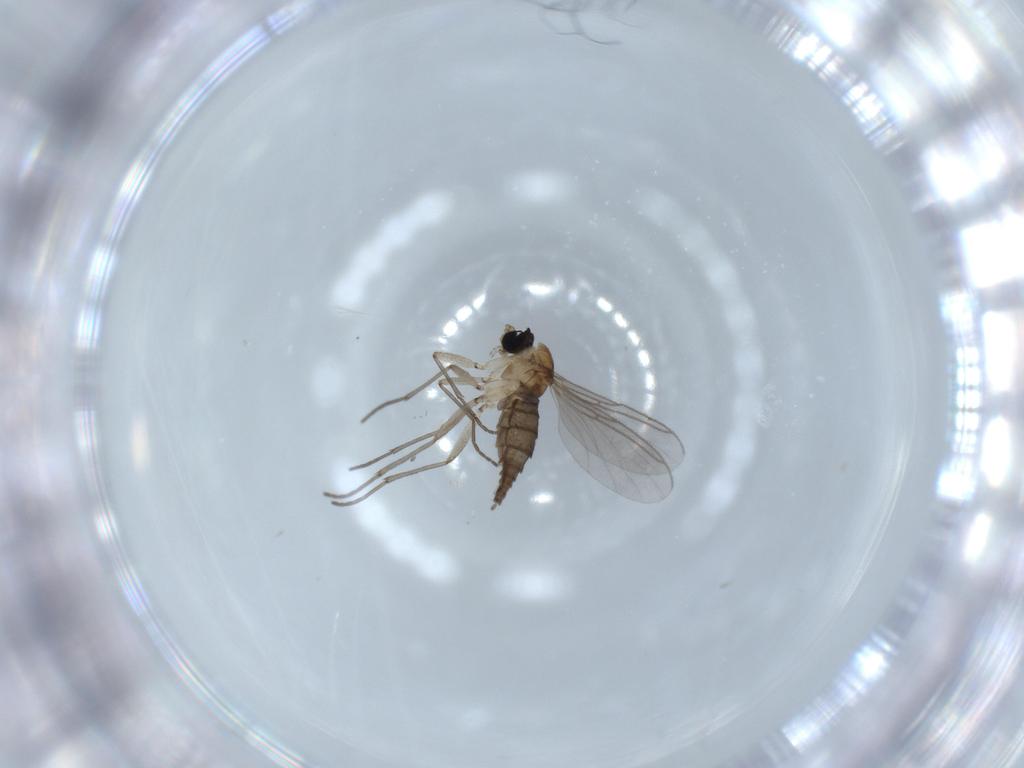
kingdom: Animalia
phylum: Arthropoda
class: Insecta
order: Diptera
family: Sciaridae
